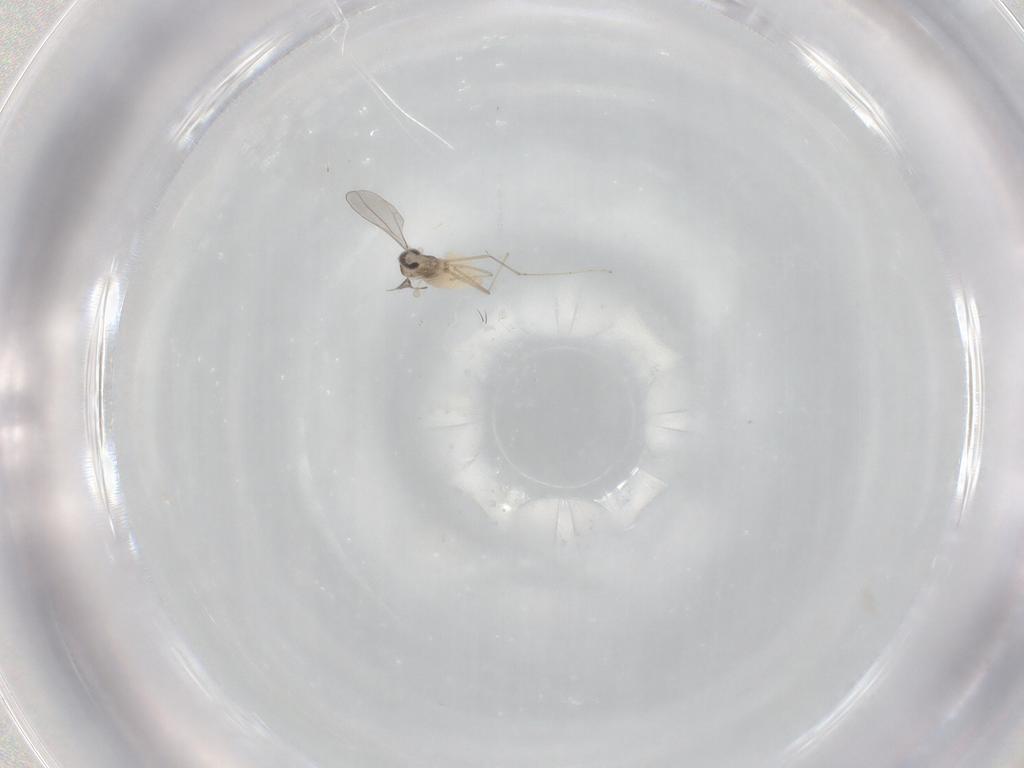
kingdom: Animalia
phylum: Arthropoda
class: Insecta
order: Diptera
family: Cecidomyiidae
